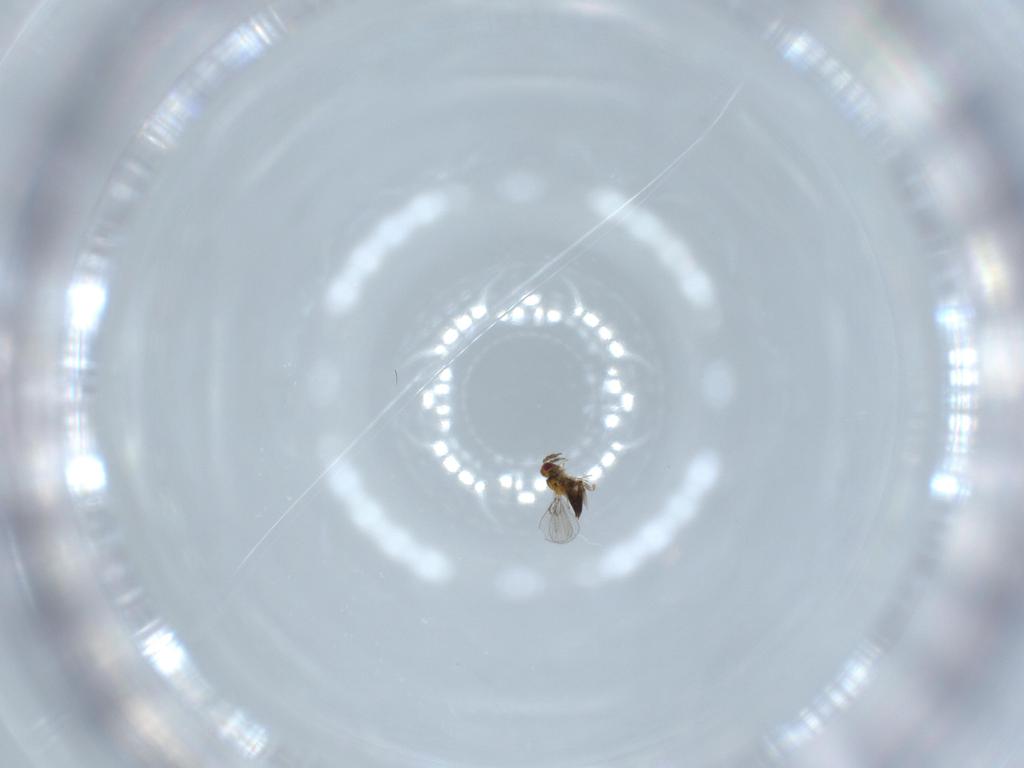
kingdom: Animalia
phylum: Arthropoda
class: Insecta
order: Hymenoptera
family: Trichogrammatidae
